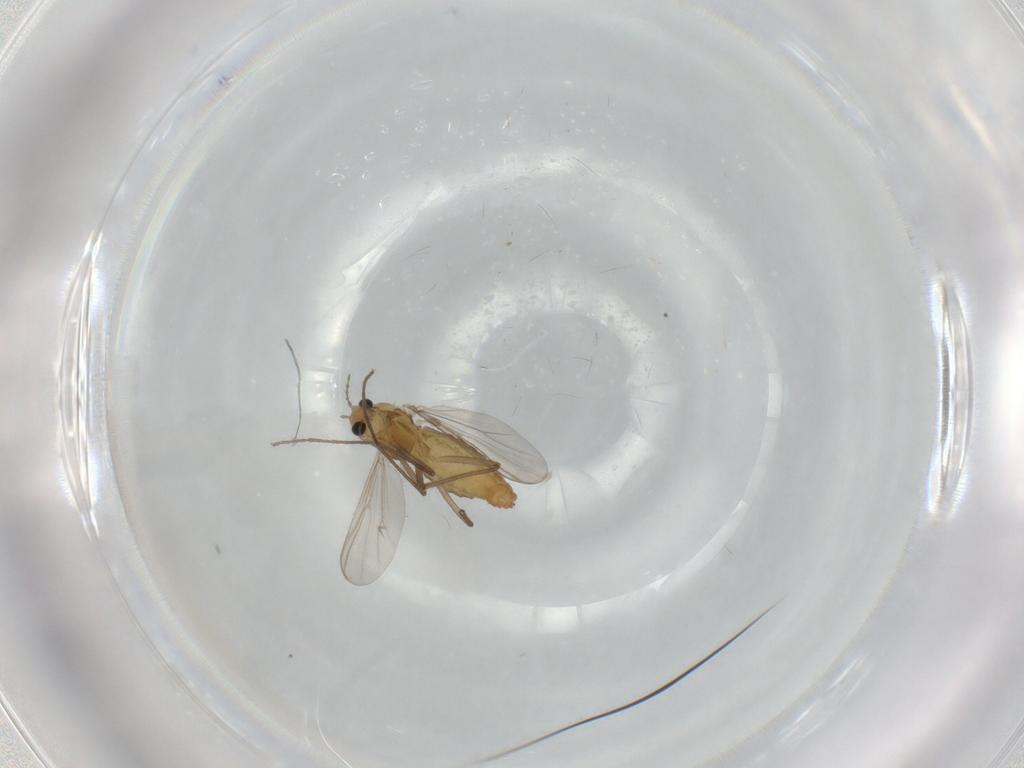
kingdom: Animalia
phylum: Arthropoda
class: Insecta
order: Diptera
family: Chironomidae
